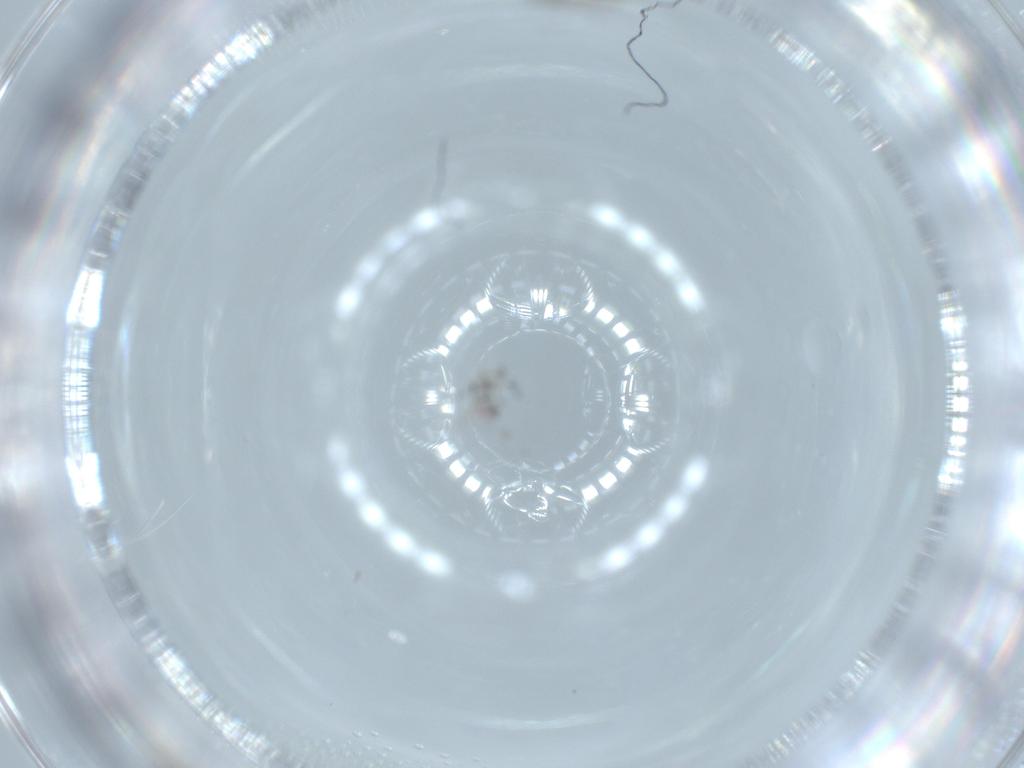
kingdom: Animalia
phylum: Arthropoda
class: Insecta
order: Diptera
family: Cecidomyiidae
